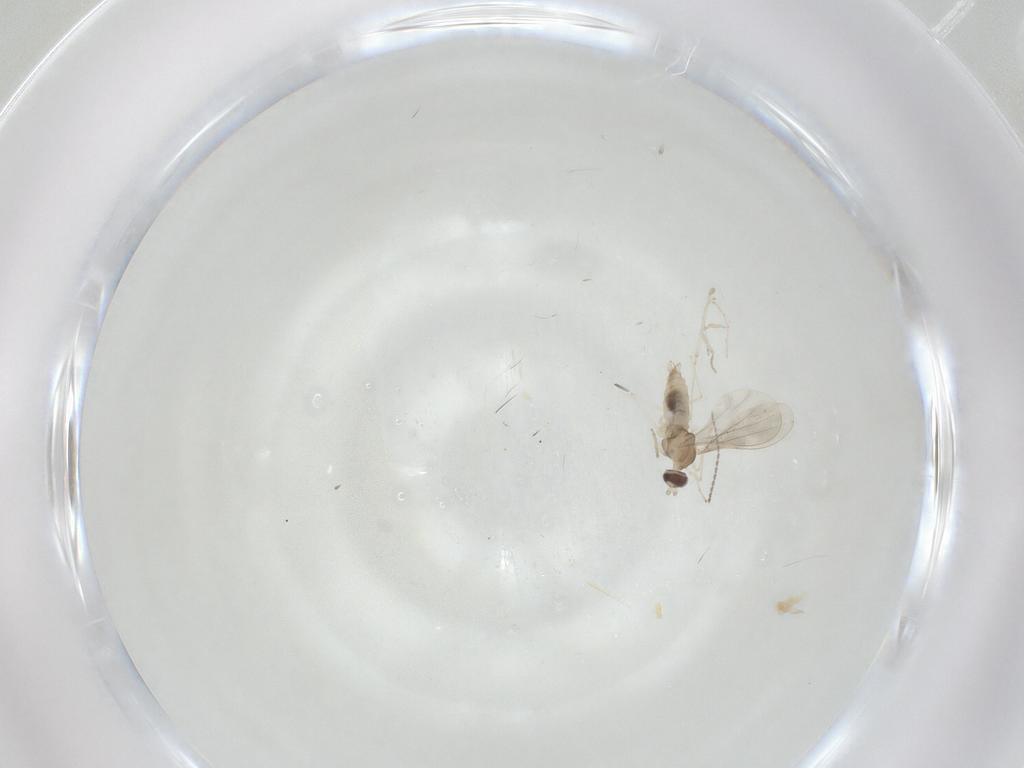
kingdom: Animalia
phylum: Arthropoda
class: Insecta
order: Diptera
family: Cecidomyiidae
